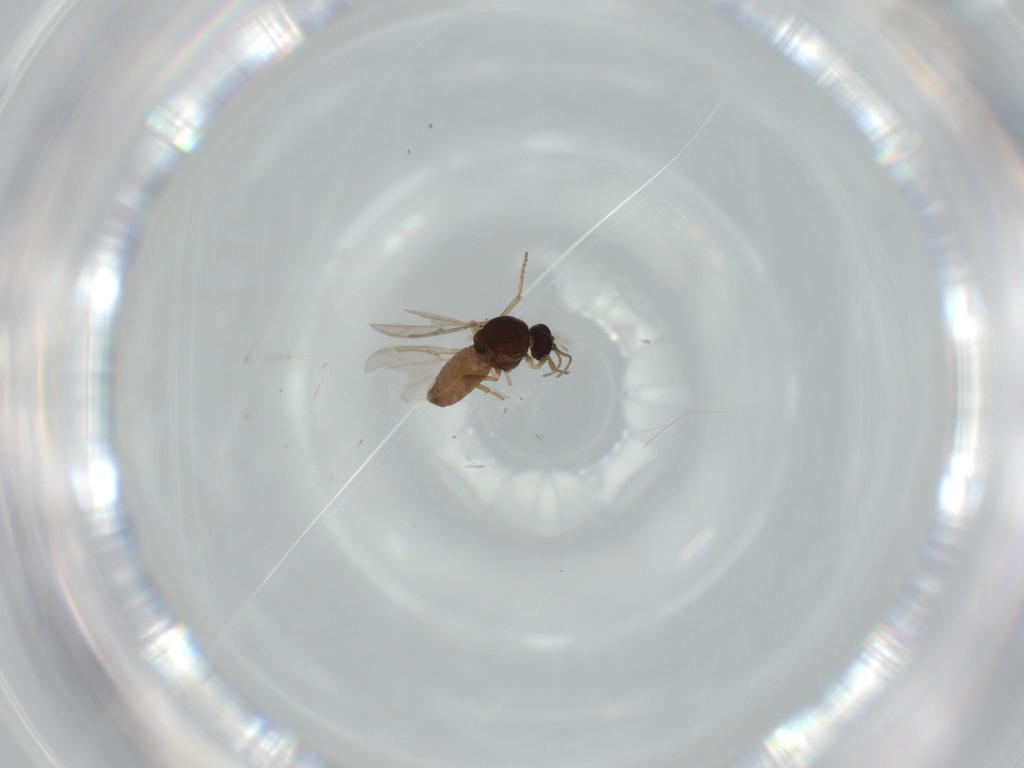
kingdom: Animalia
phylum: Arthropoda
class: Insecta
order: Diptera
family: Ceratopogonidae
